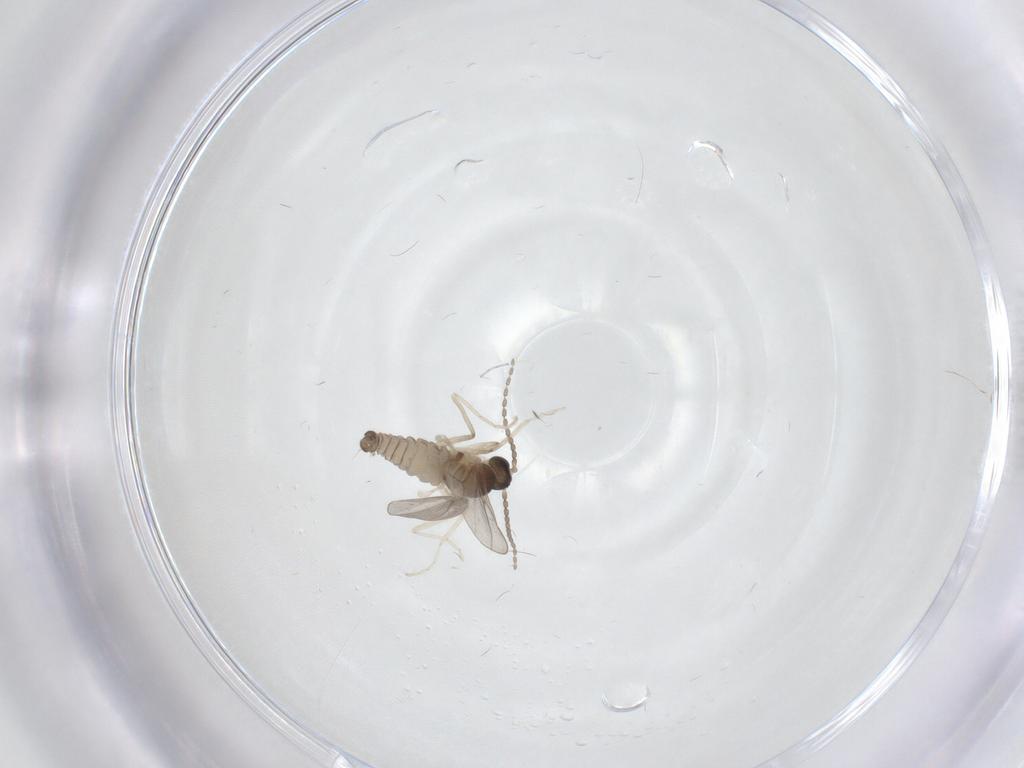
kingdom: Animalia
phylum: Arthropoda
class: Insecta
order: Diptera
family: Cecidomyiidae
